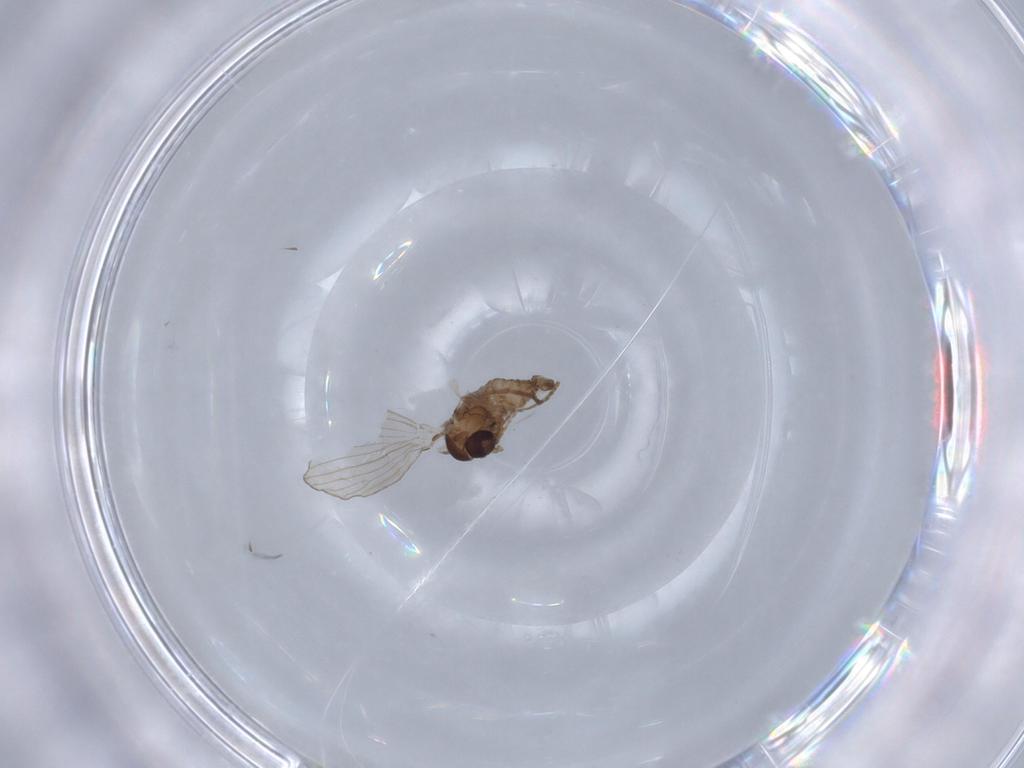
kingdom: Animalia
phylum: Arthropoda
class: Insecta
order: Diptera
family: Psychodidae
